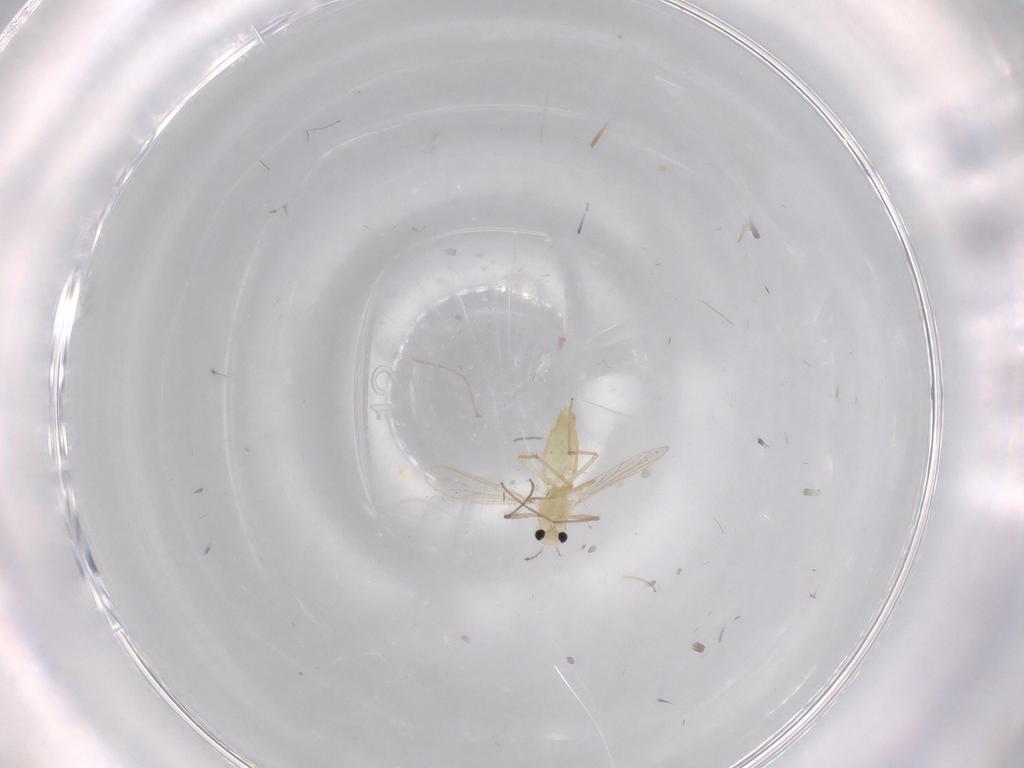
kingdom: Animalia
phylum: Arthropoda
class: Insecta
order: Diptera
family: Chironomidae
